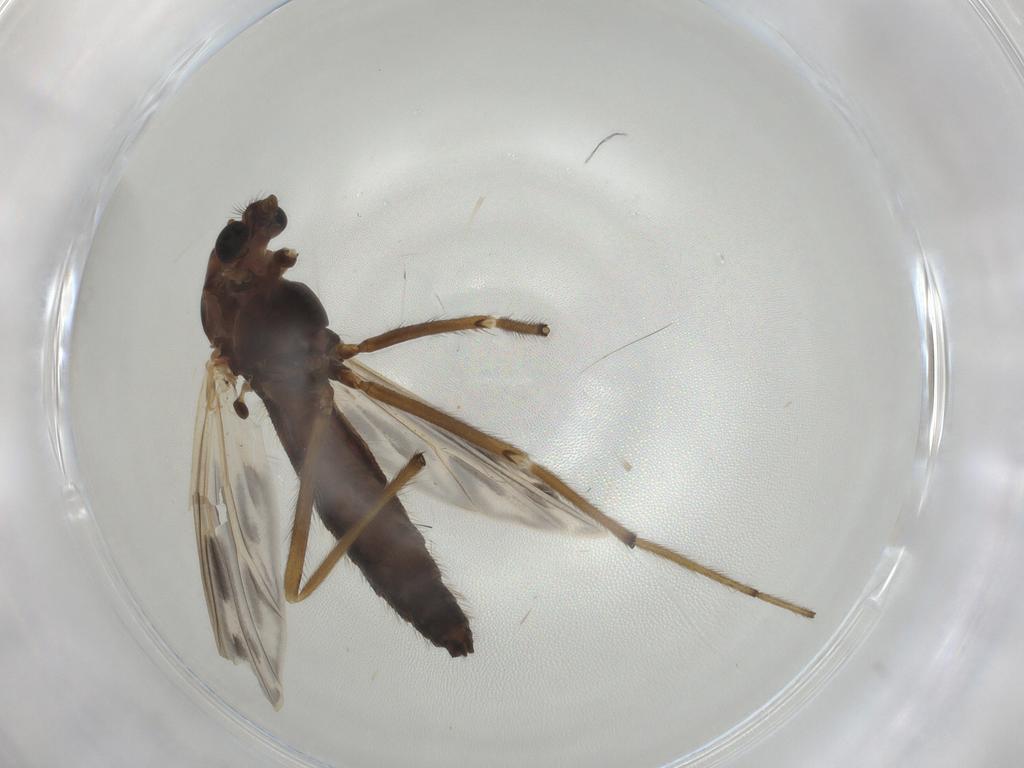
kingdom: Animalia
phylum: Arthropoda
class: Insecta
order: Diptera
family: Chironomidae
